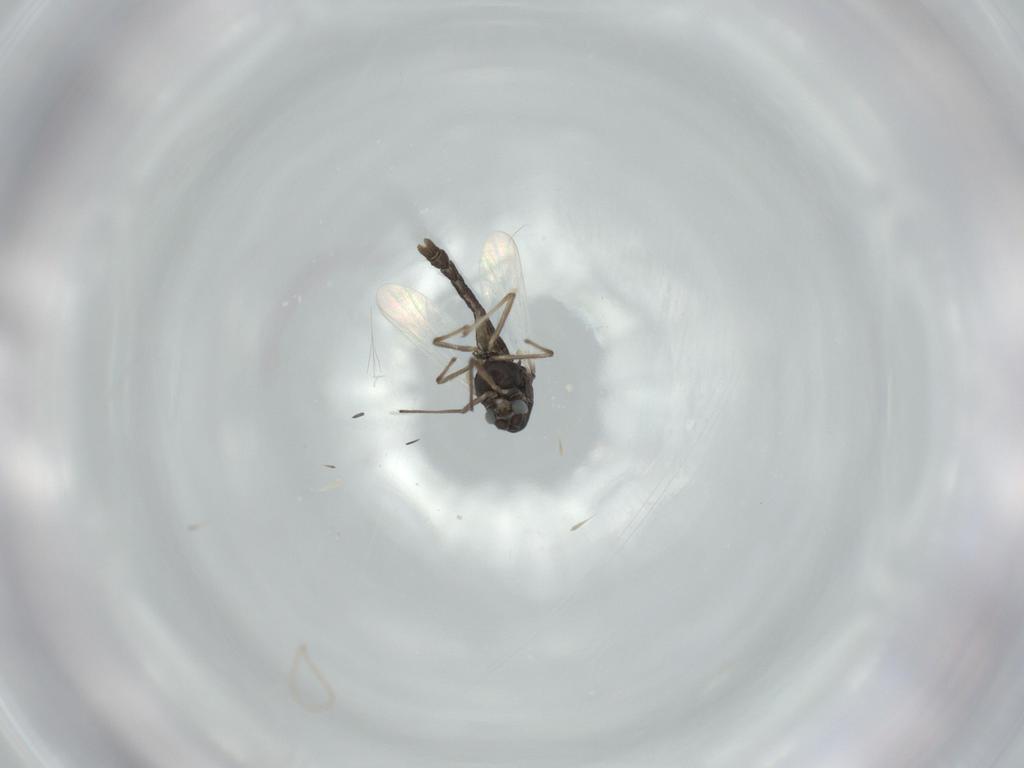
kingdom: Animalia
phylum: Arthropoda
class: Insecta
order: Diptera
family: Chironomidae
